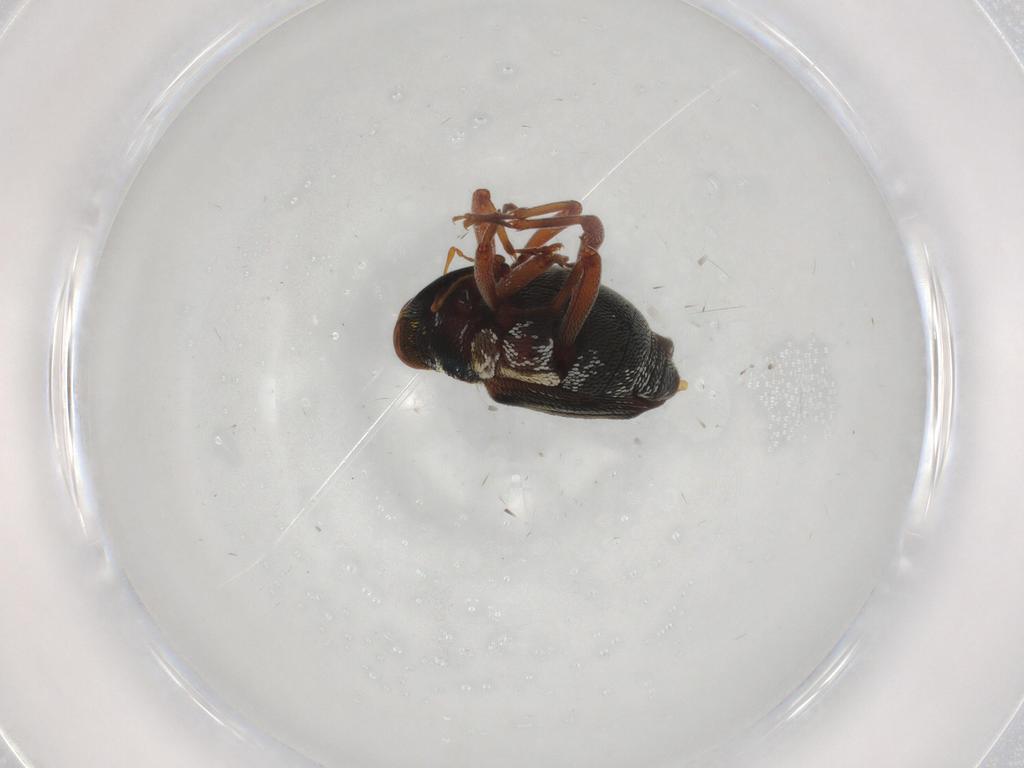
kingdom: Animalia
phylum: Arthropoda
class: Insecta
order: Coleoptera
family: Curculionidae
